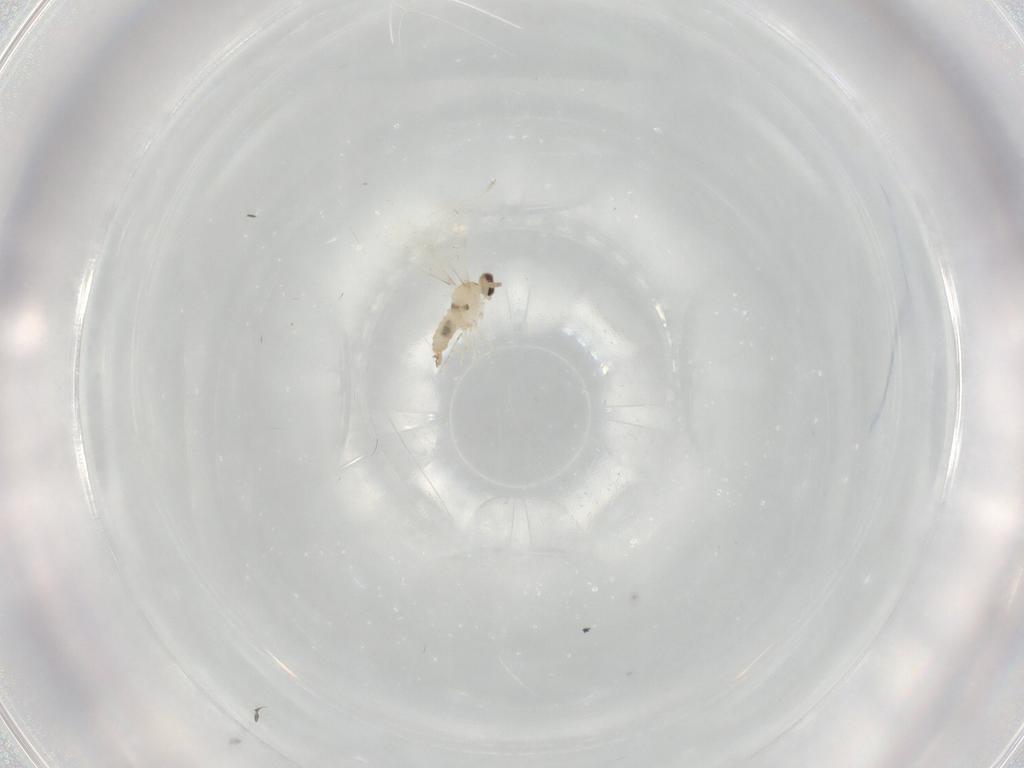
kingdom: Animalia
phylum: Arthropoda
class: Insecta
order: Diptera
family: Cecidomyiidae
